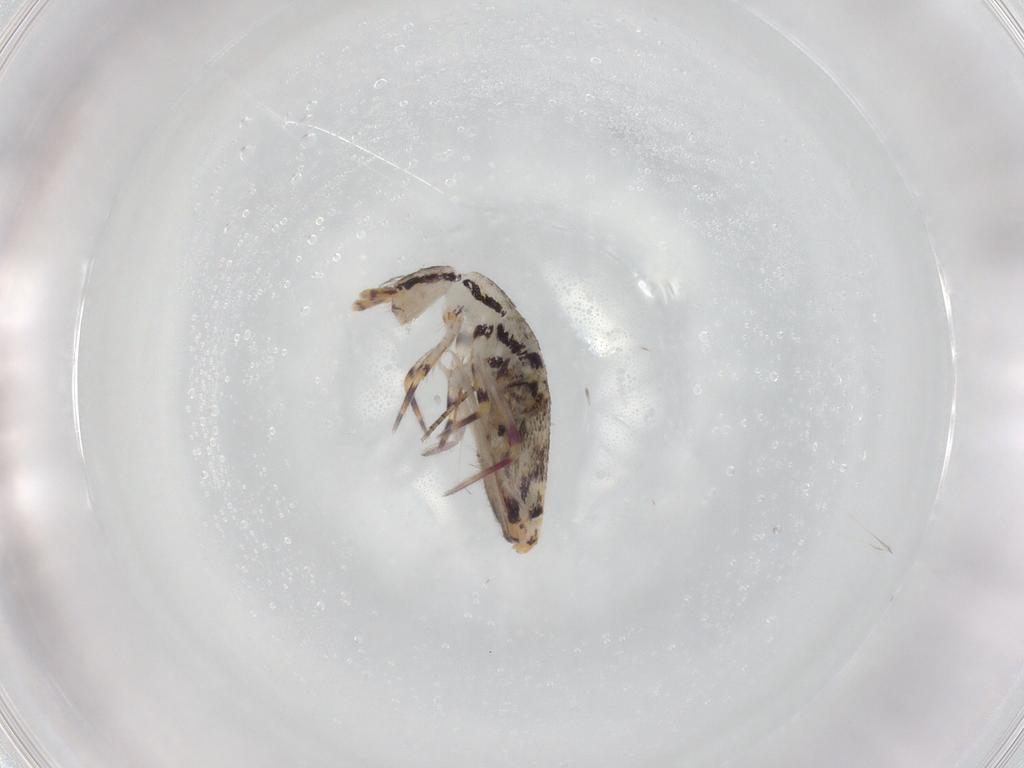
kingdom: Animalia
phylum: Arthropoda
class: Collembola
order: Entomobryomorpha
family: Entomobryidae
